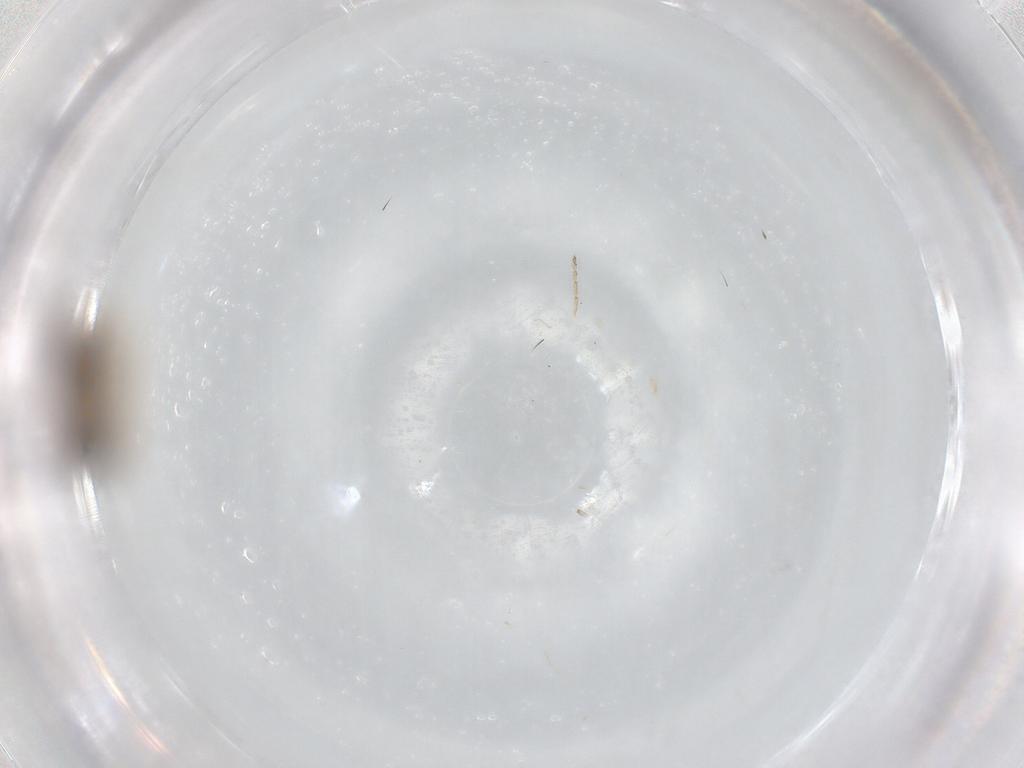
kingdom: Animalia
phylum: Arthropoda
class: Insecta
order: Diptera
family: Ceratopogonidae
